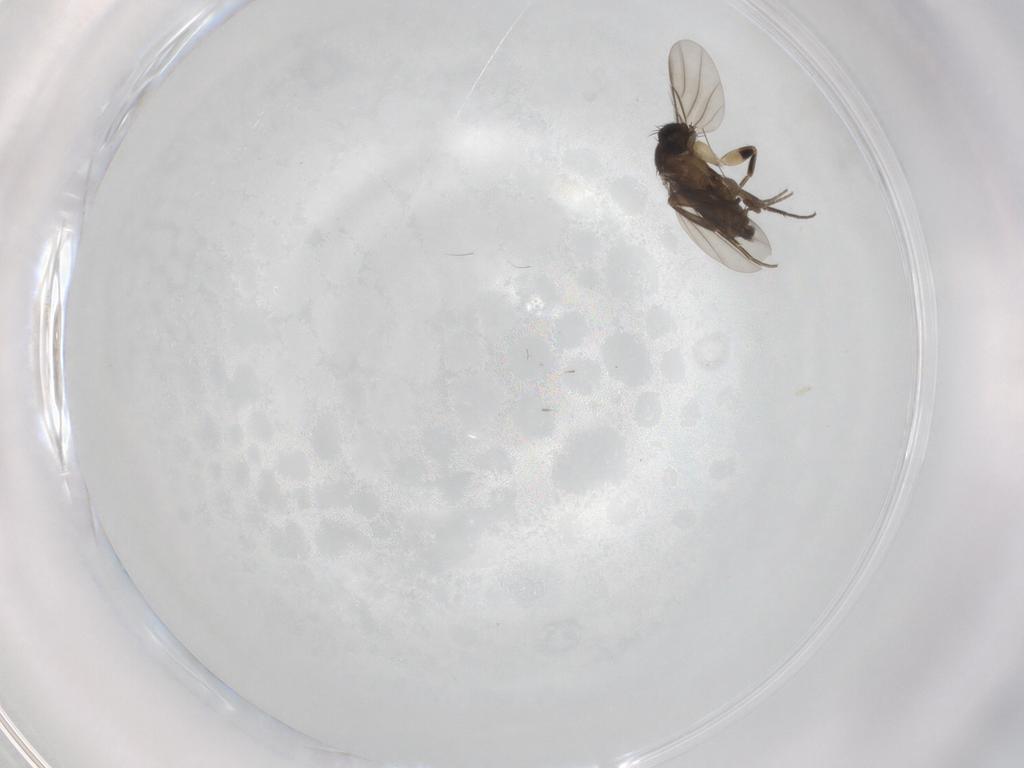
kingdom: Animalia
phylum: Arthropoda
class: Insecta
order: Diptera
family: Phoridae
